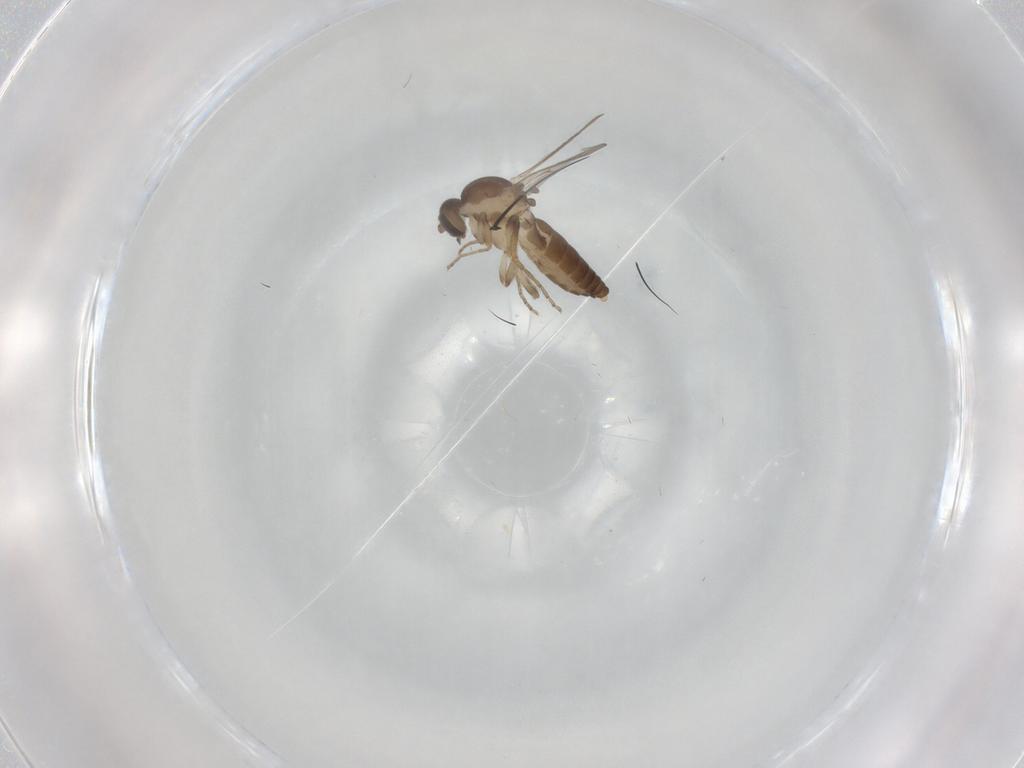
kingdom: Animalia
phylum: Arthropoda
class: Insecta
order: Diptera
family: Ceratopogonidae
